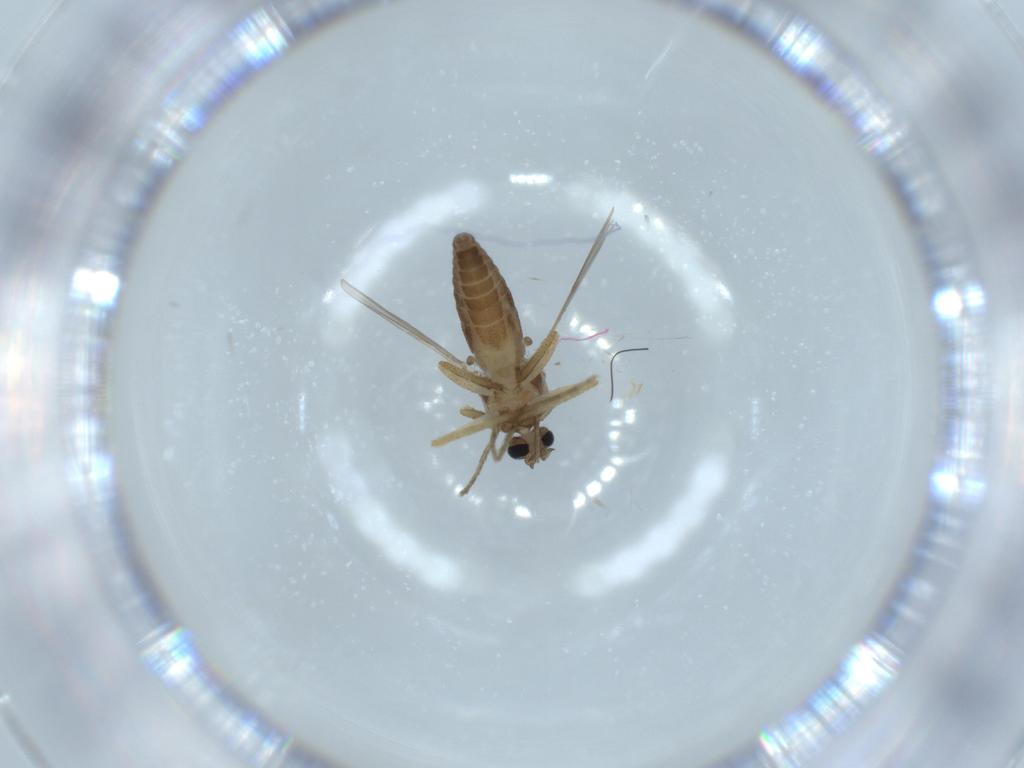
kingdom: Animalia
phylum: Arthropoda
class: Insecta
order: Diptera
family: Ceratopogonidae
